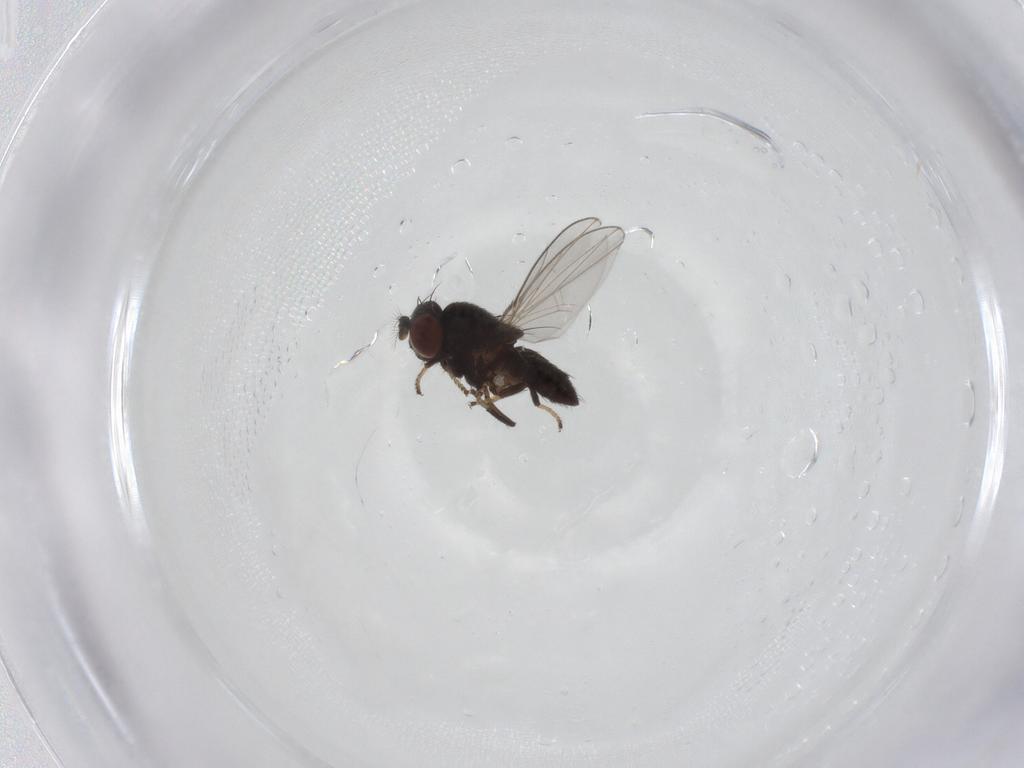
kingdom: Animalia
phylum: Arthropoda
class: Insecta
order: Diptera
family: Ephydridae
